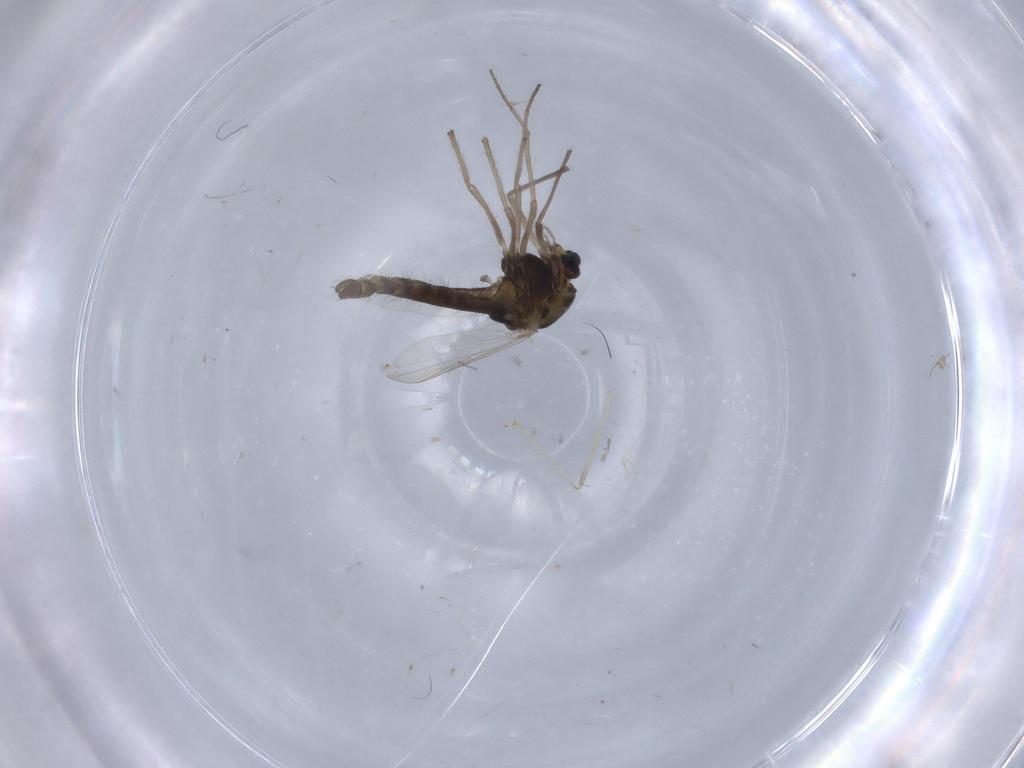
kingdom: Animalia
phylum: Arthropoda
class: Insecta
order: Diptera
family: Chironomidae
